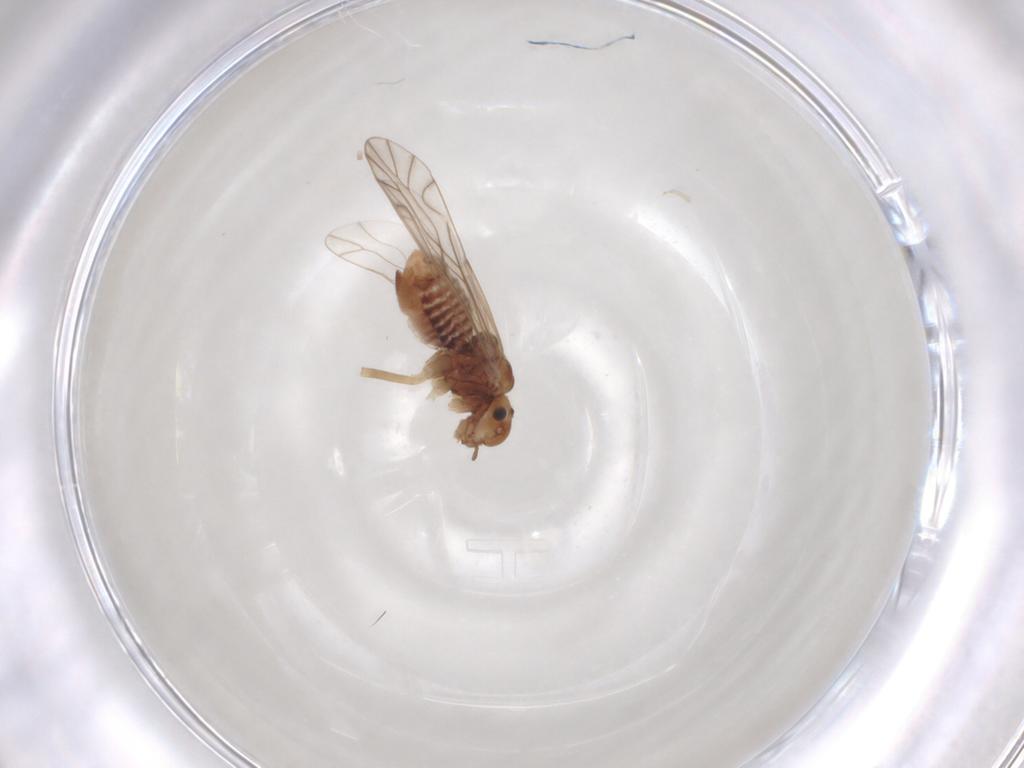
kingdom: Animalia
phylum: Arthropoda
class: Insecta
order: Psocodea
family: Lachesillidae
